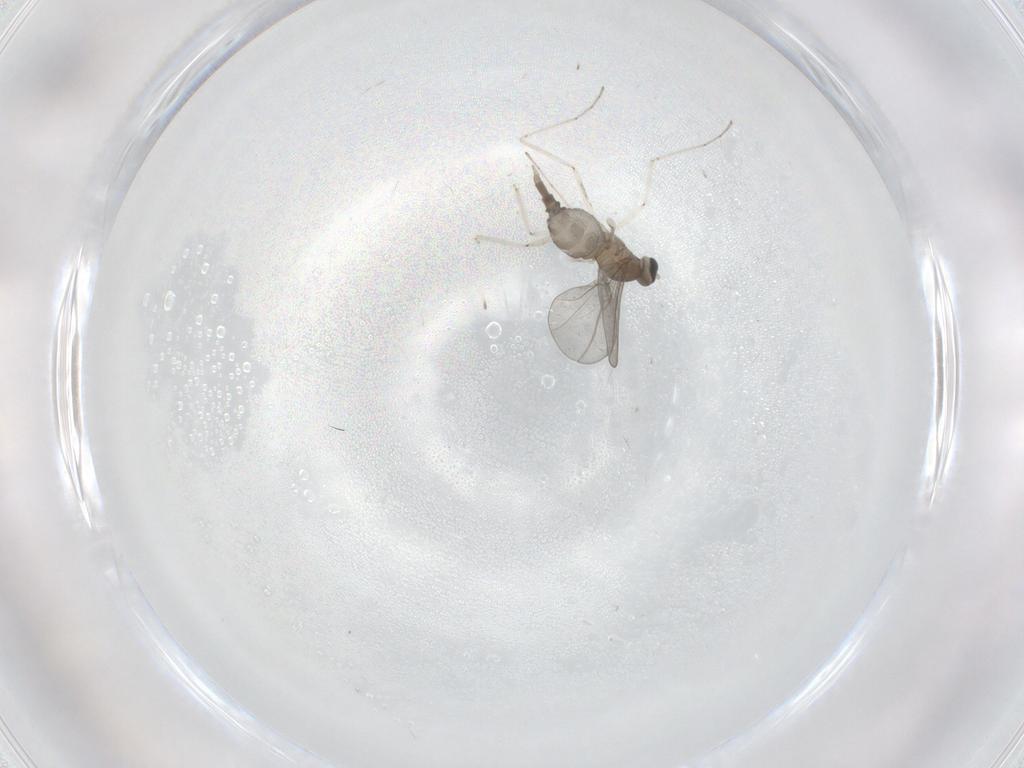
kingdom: Animalia
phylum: Arthropoda
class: Insecta
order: Diptera
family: Cecidomyiidae
